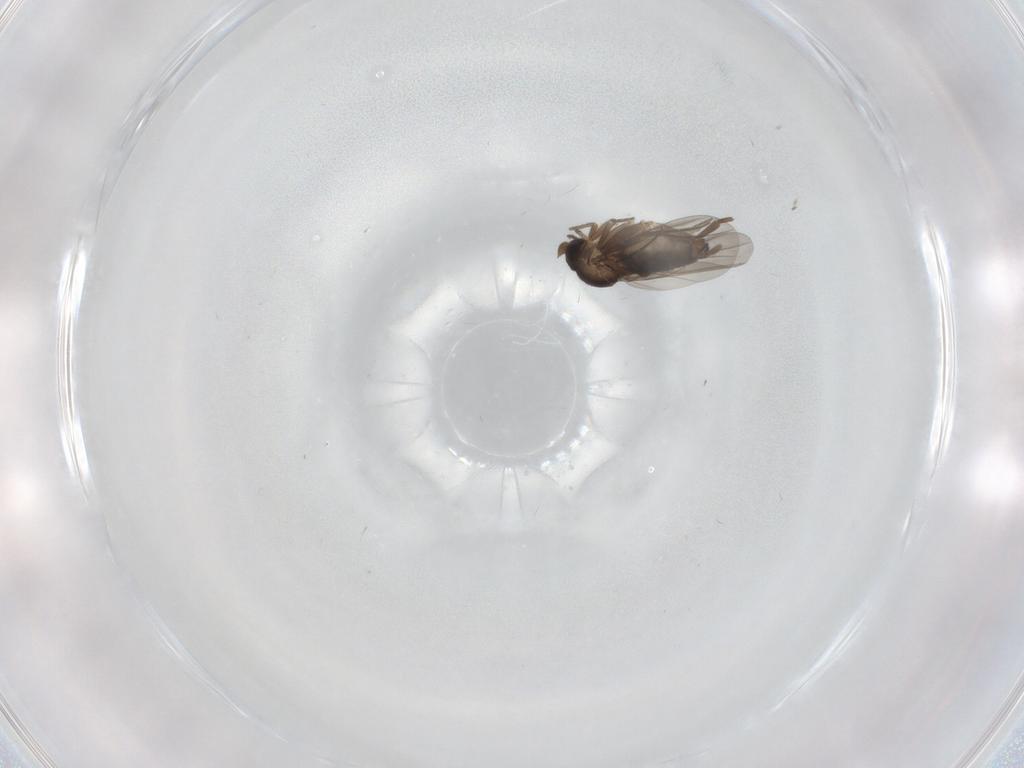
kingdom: Animalia
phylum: Arthropoda
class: Insecta
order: Diptera
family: Phoridae
